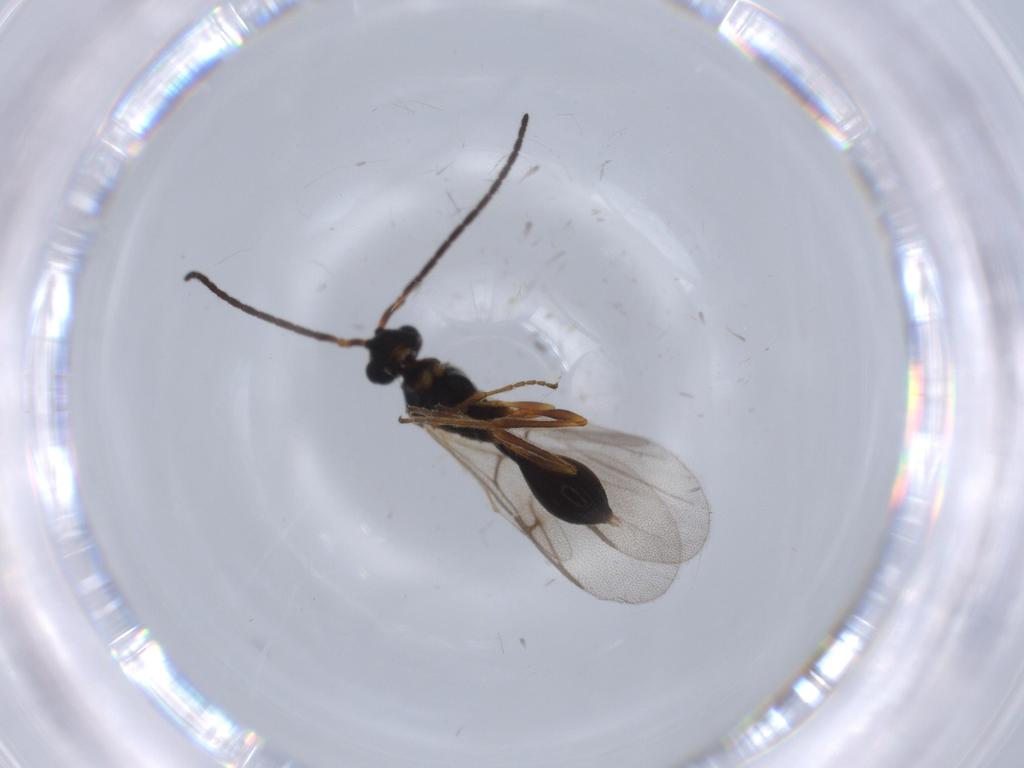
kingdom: Animalia
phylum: Arthropoda
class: Insecta
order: Hymenoptera
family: Diapriidae
